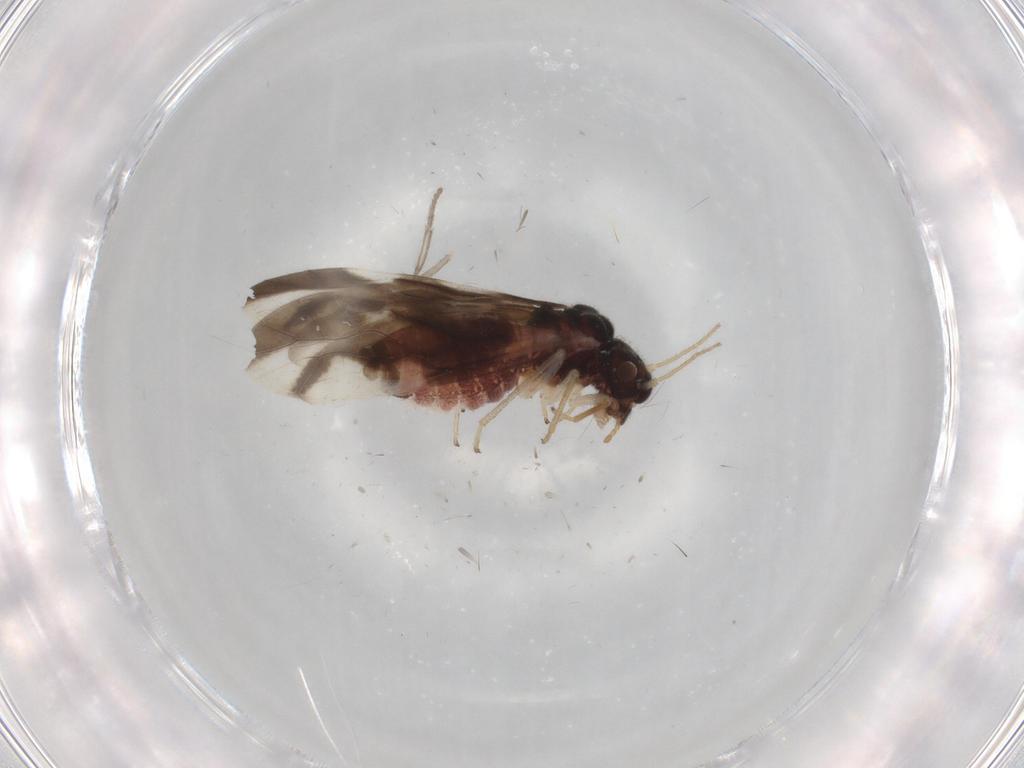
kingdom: Animalia
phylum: Arthropoda
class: Insecta
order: Psocodea
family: Caeciliusidae
